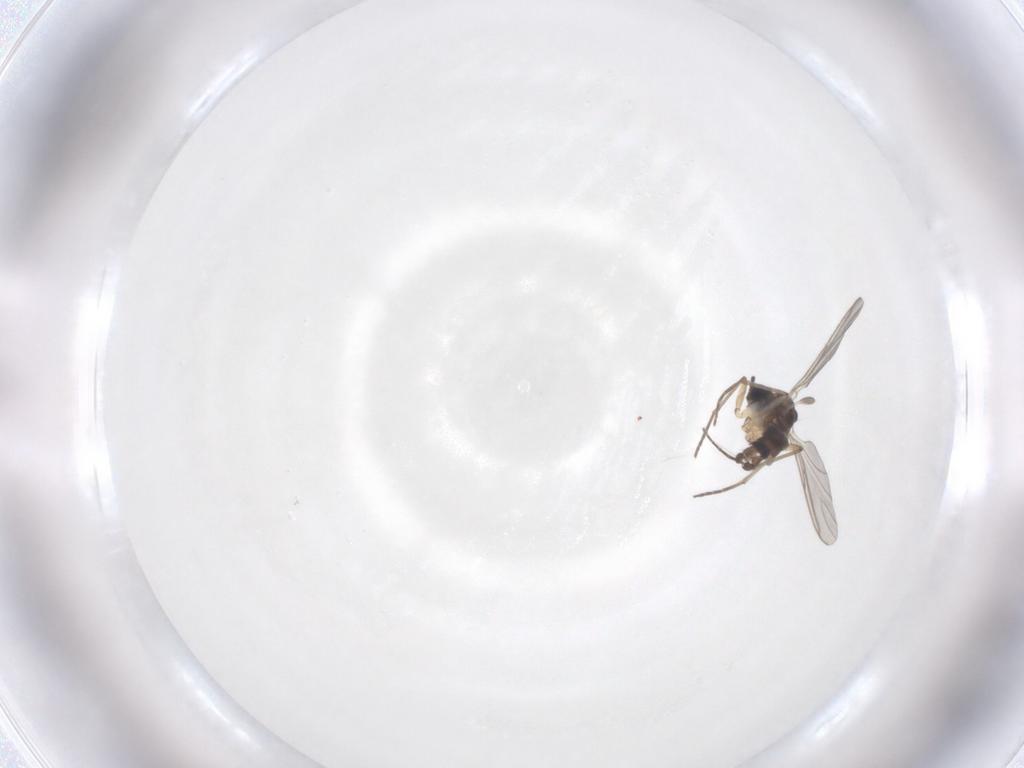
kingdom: Animalia
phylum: Arthropoda
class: Insecta
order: Diptera
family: Sciaridae
